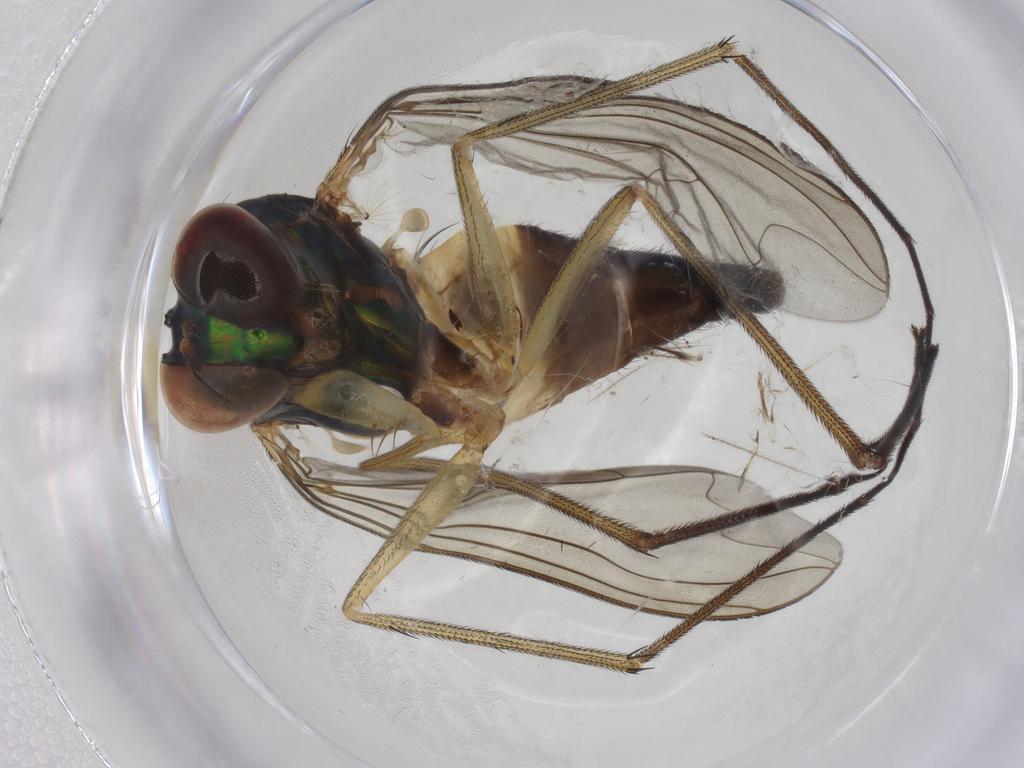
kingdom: Animalia
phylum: Arthropoda
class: Insecta
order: Diptera
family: Dolichopodidae
